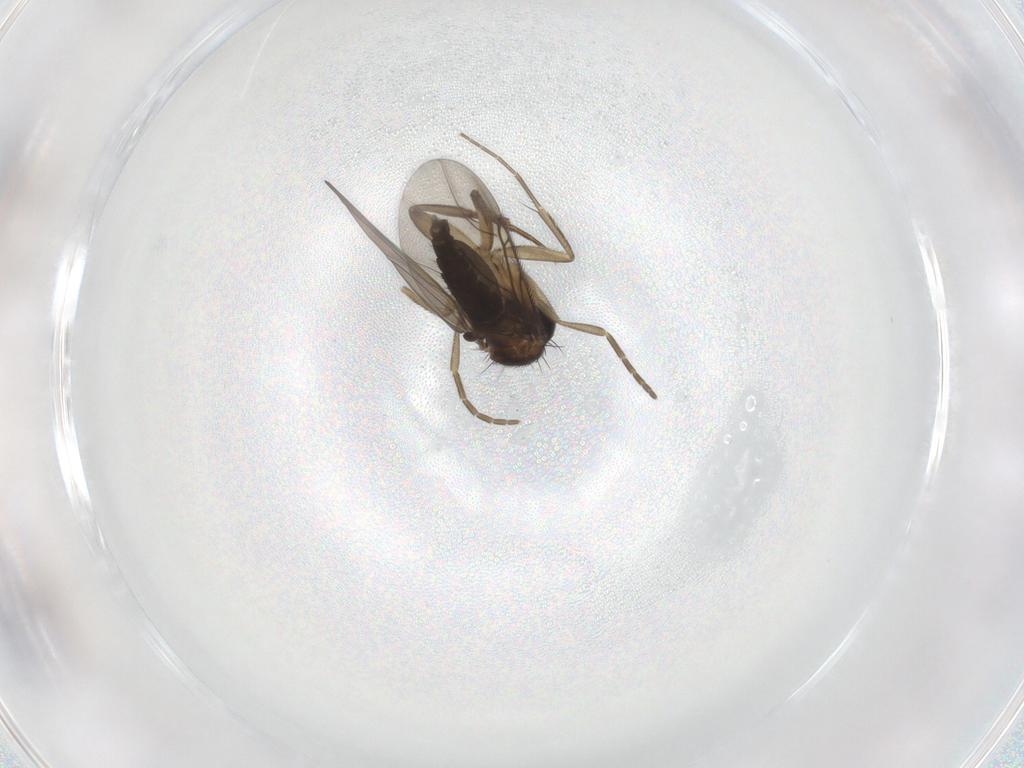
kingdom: Animalia
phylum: Arthropoda
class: Insecta
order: Diptera
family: Phoridae
